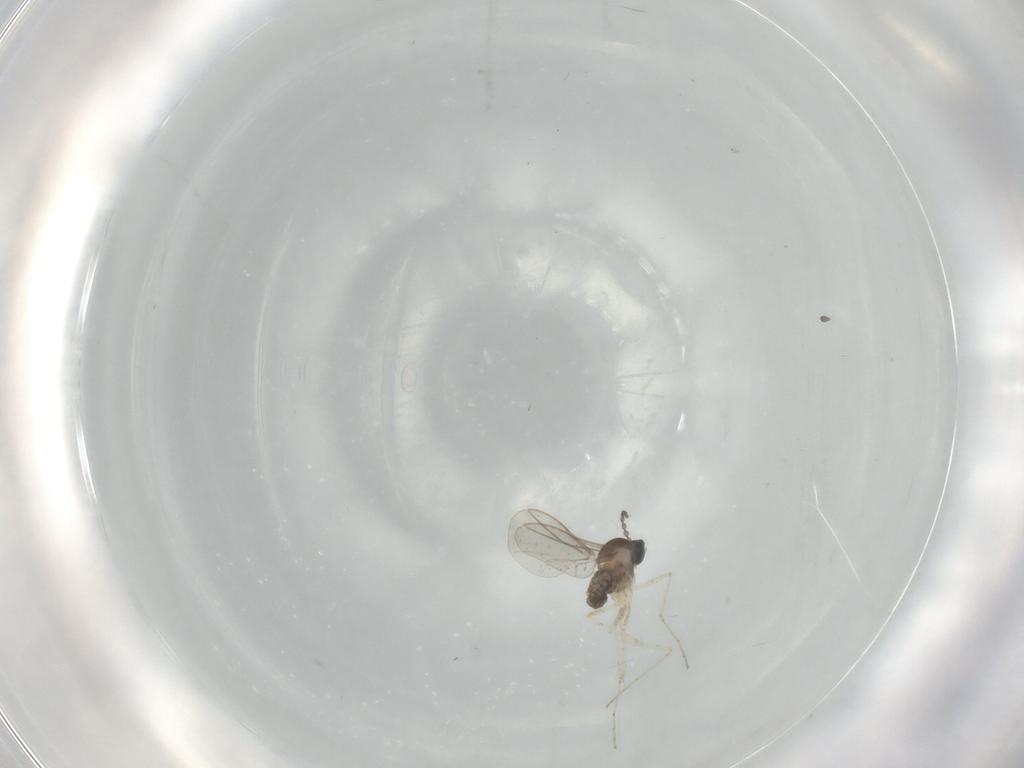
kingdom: Animalia
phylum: Arthropoda
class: Insecta
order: Diptera
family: Cecidomyiidae
